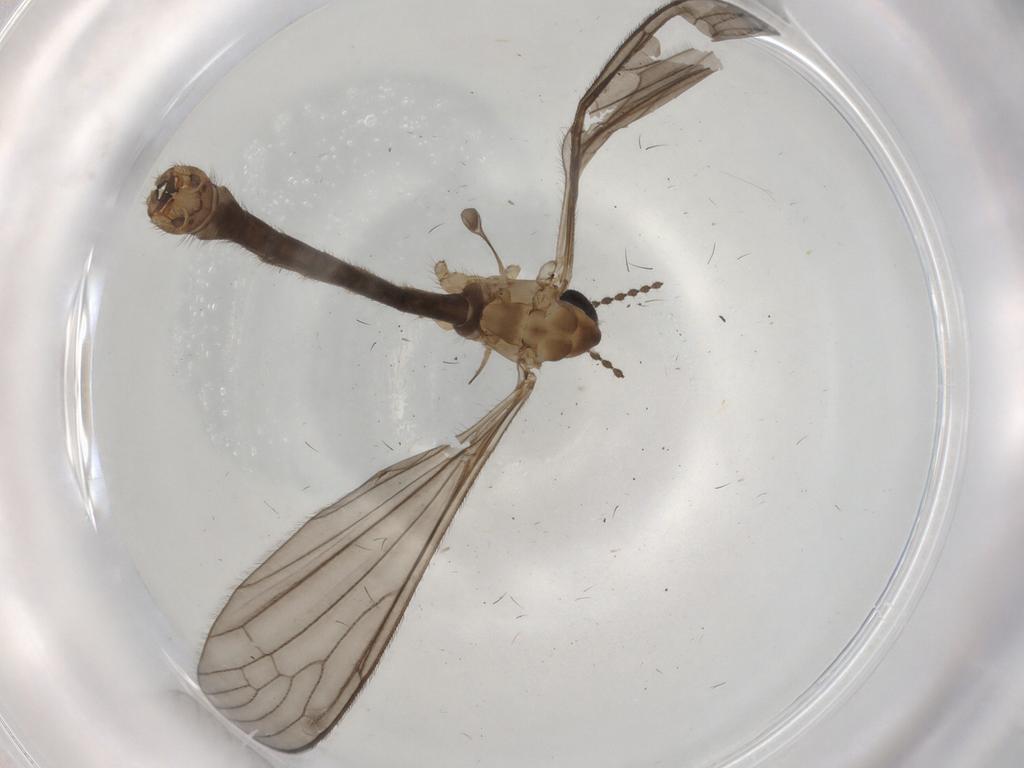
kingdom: Animalia
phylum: Arthropoda
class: Insecta
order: Diptera
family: Limoniidae
